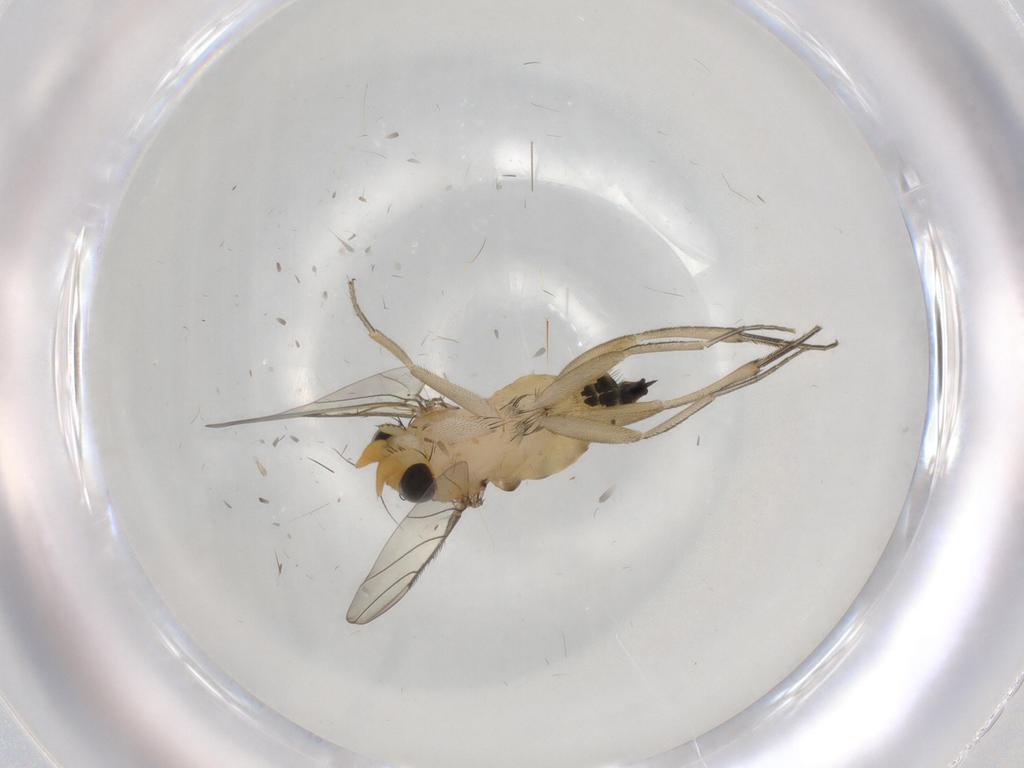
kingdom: Animalia
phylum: Arthropoda
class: Insecta
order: Diptera
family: Phoridae
